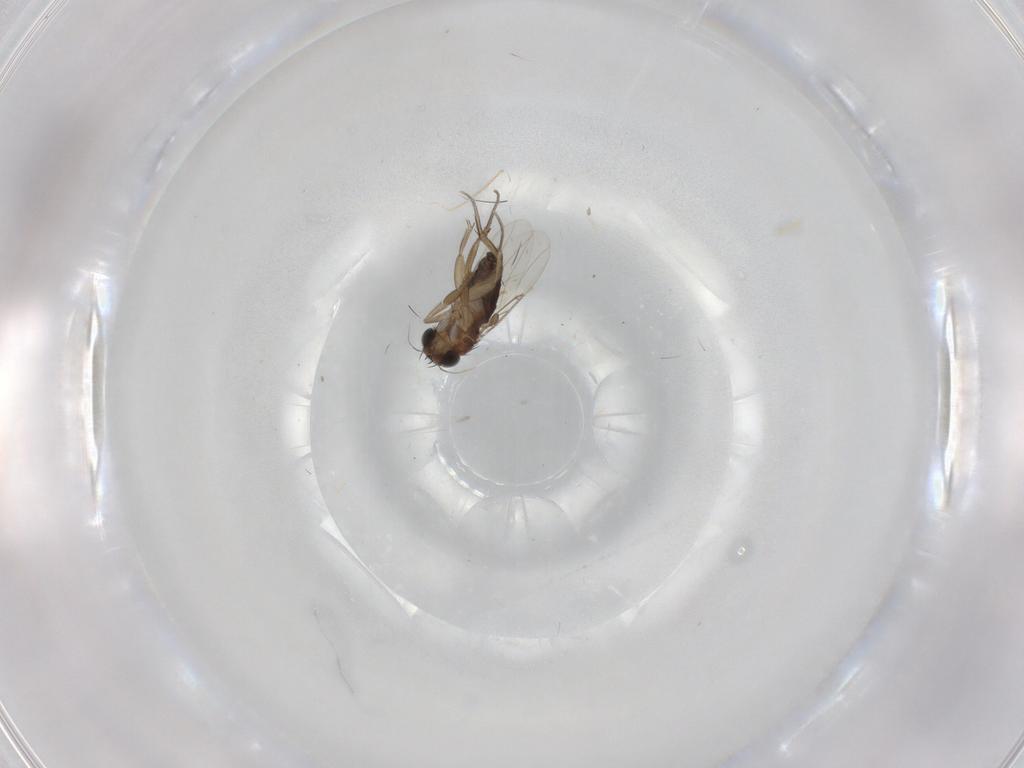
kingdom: Animalia
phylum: Arthropoda
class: Insecta
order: Diptera
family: Phoridae
